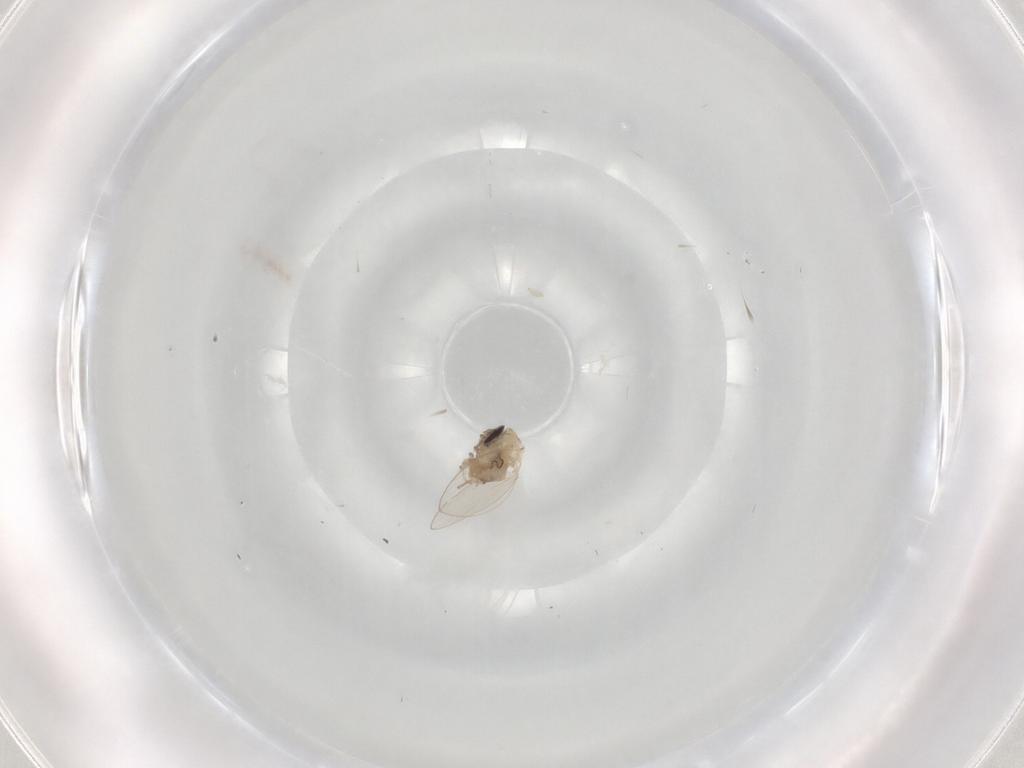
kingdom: Animalia
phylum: Arthropoda
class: Insecta
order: Diptera
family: Psychodidae
